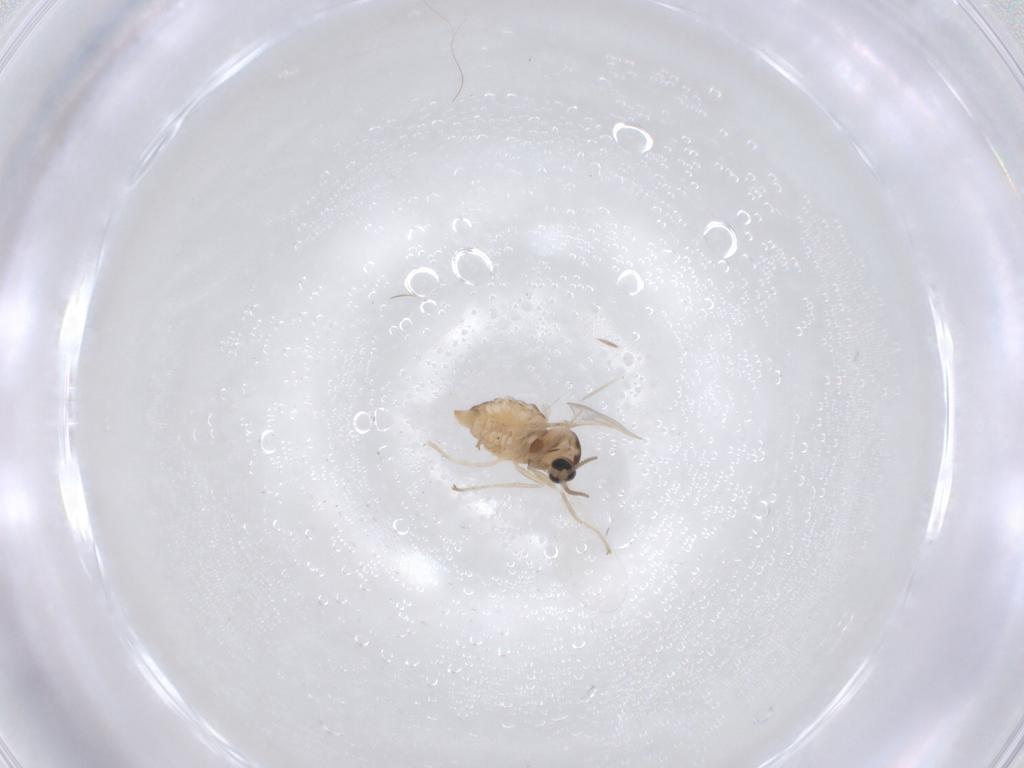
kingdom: Animalia
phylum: Arthropoda
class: Insecta
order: Diptera
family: Cecidomyiidae
